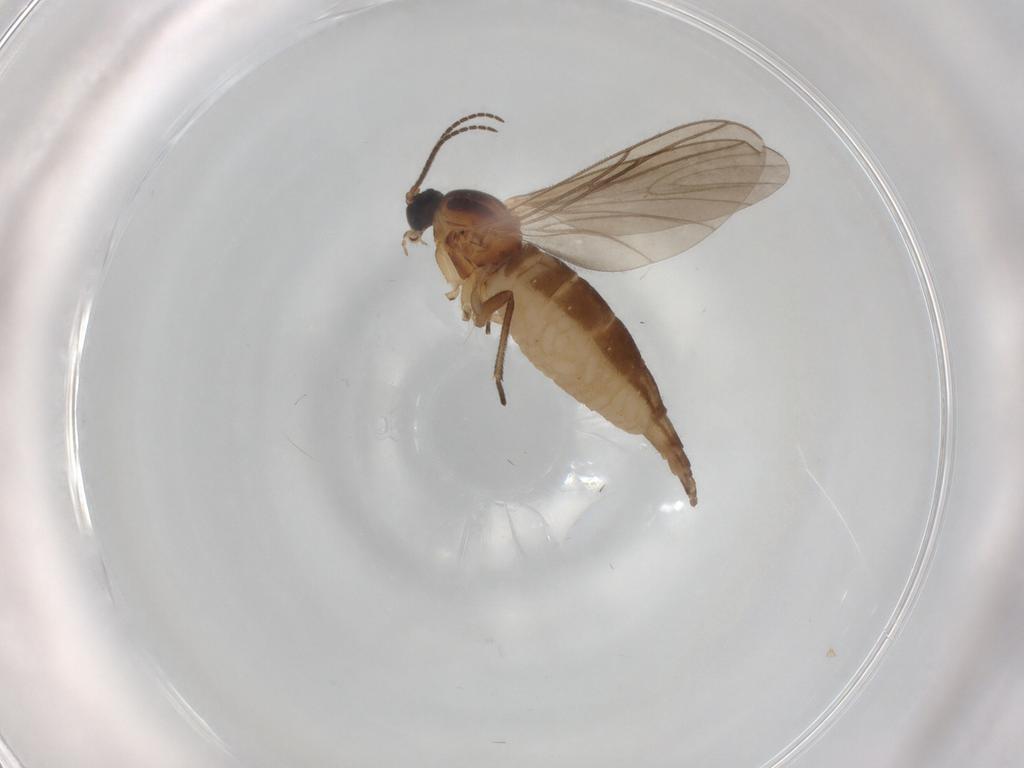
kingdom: Animalia
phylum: Arthropoda
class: Insecta
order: Diptera
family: Sciaridae
